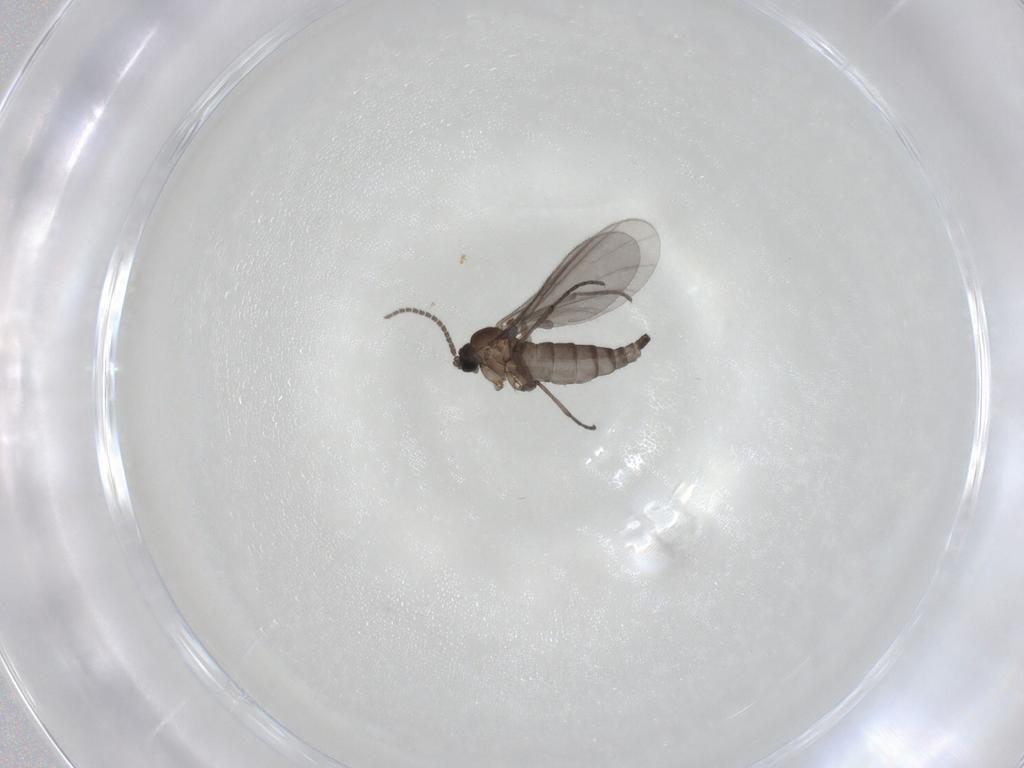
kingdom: Animalia
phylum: Arthropoda
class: Insecta
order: Diptera
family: Sciaridae
